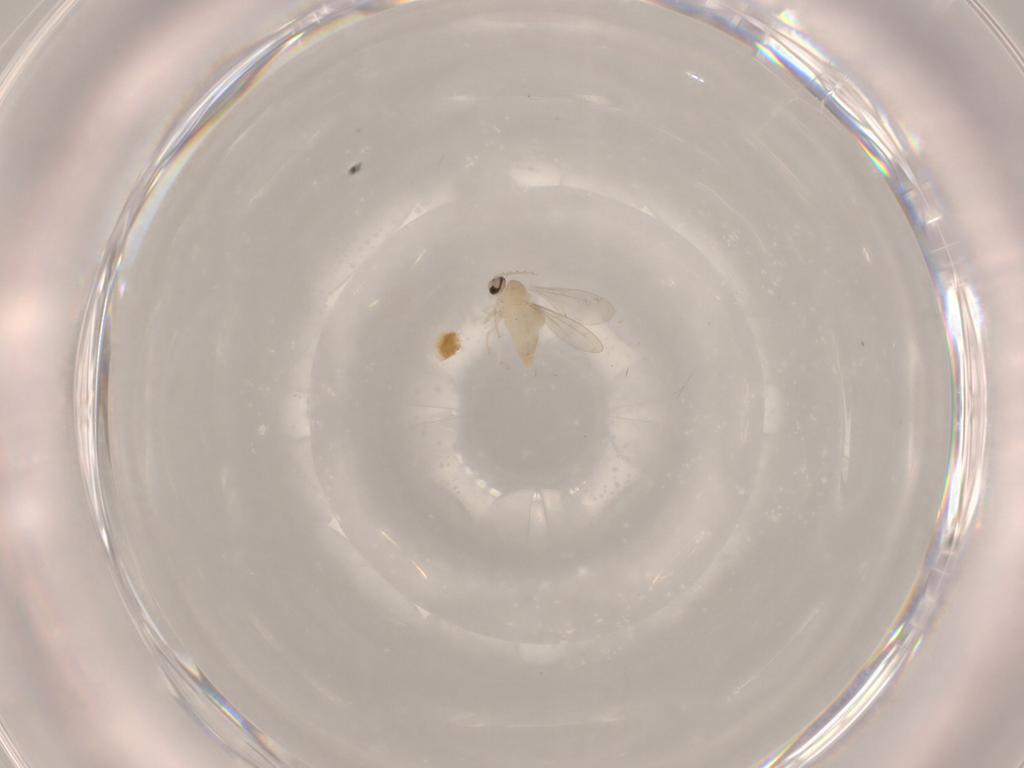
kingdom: Animalia
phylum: Arthropoda
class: Insecta
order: Diptera
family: Cecidomyiidae
